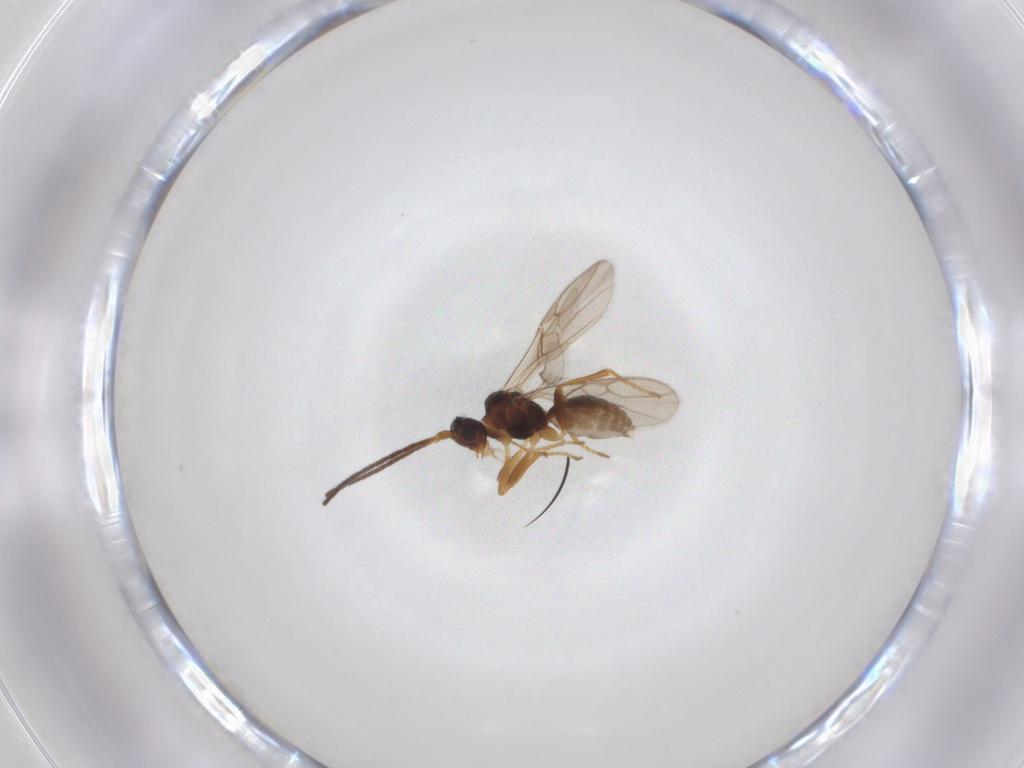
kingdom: Animalia
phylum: Arthropoda
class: Insecta
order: Hymenoptera
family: Braconidae
